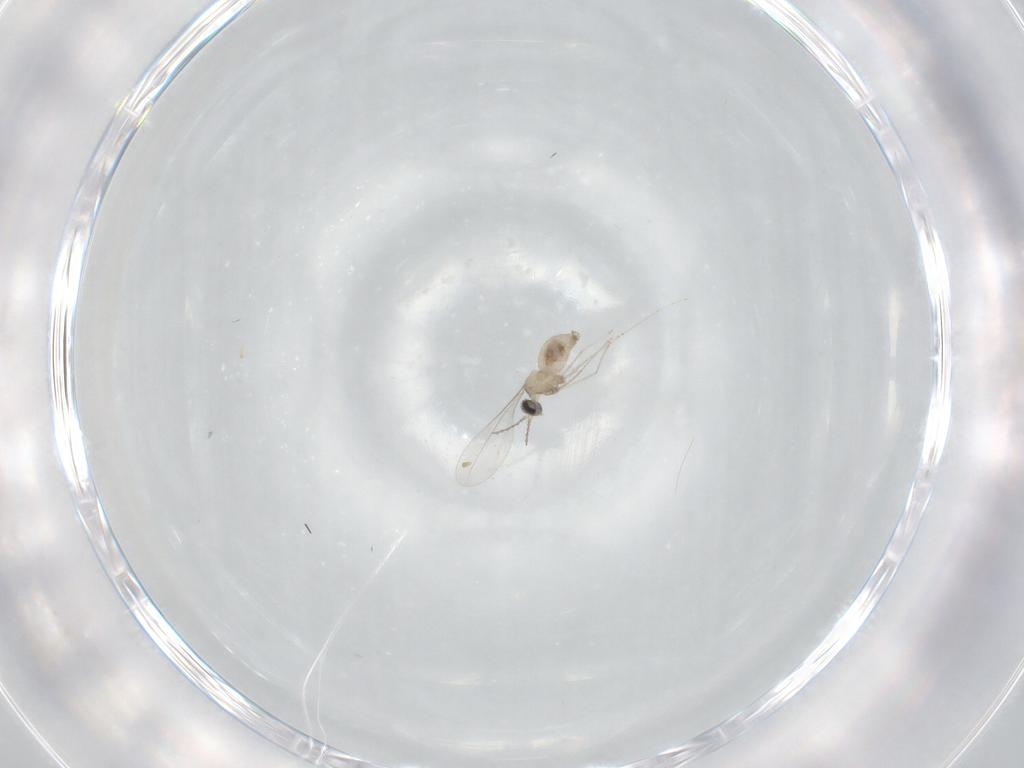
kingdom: Animalia
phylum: Arthropoda
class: Insecta
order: Diptera
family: Cecidomyiidae
